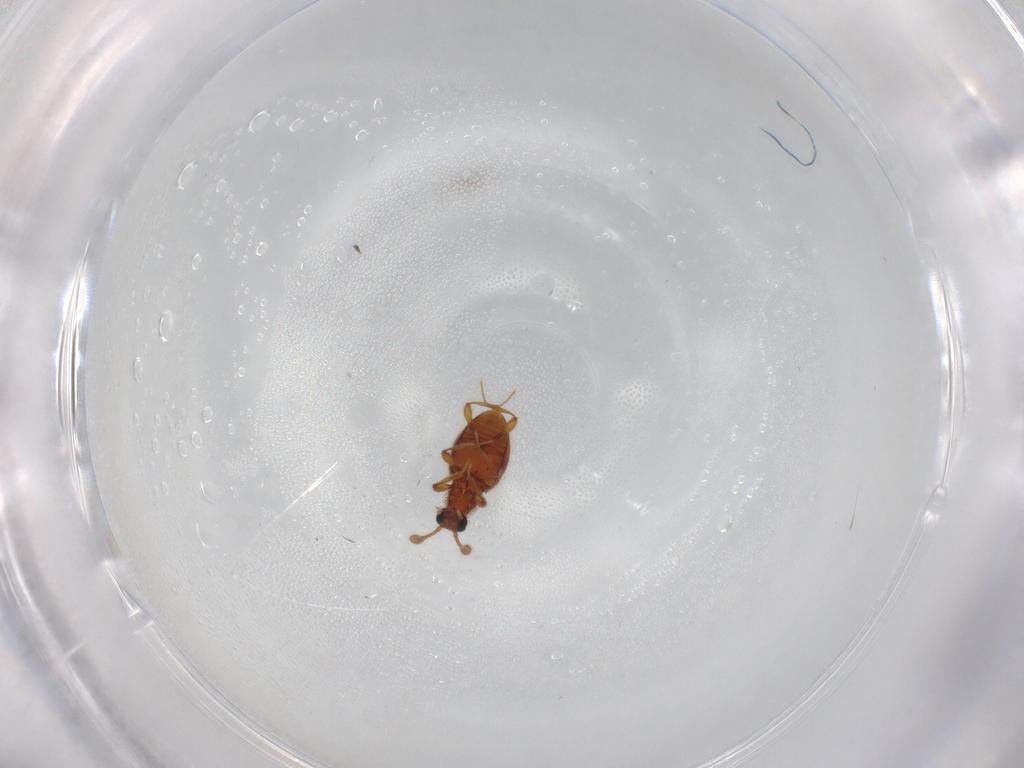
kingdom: Animalia
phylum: Arthropoda
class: Insecta
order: Coleoptera
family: Staphylinidae
